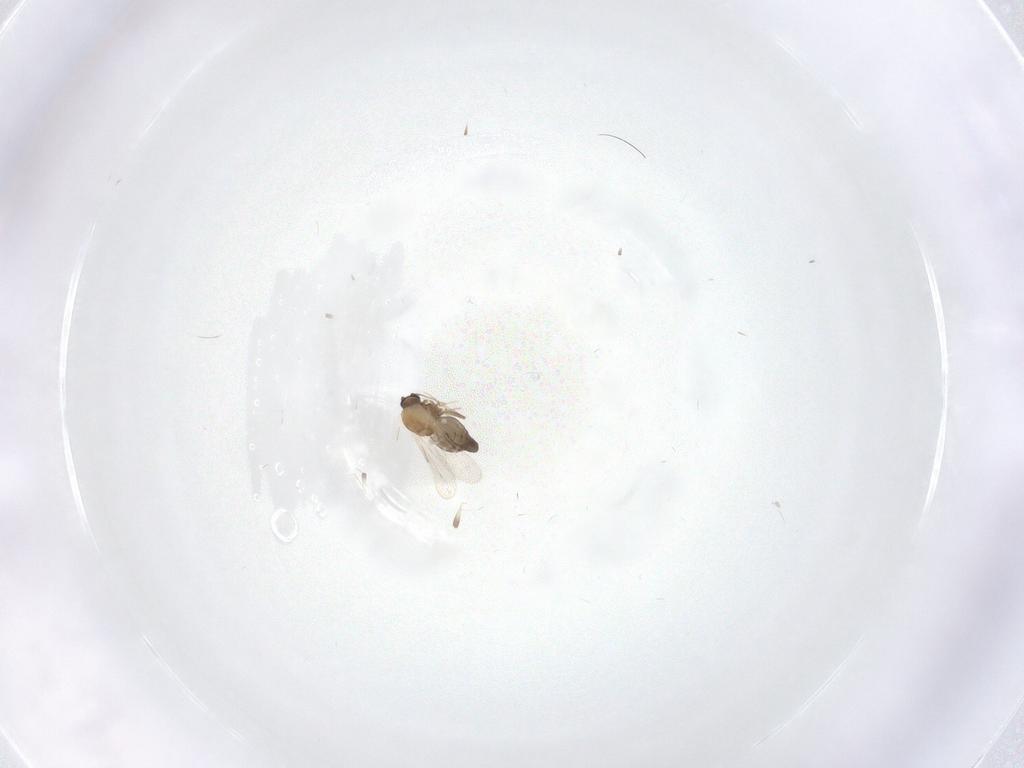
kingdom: Animalia
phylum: Arthropoda
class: Insecta
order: Diptera
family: Ceratopogonidae
